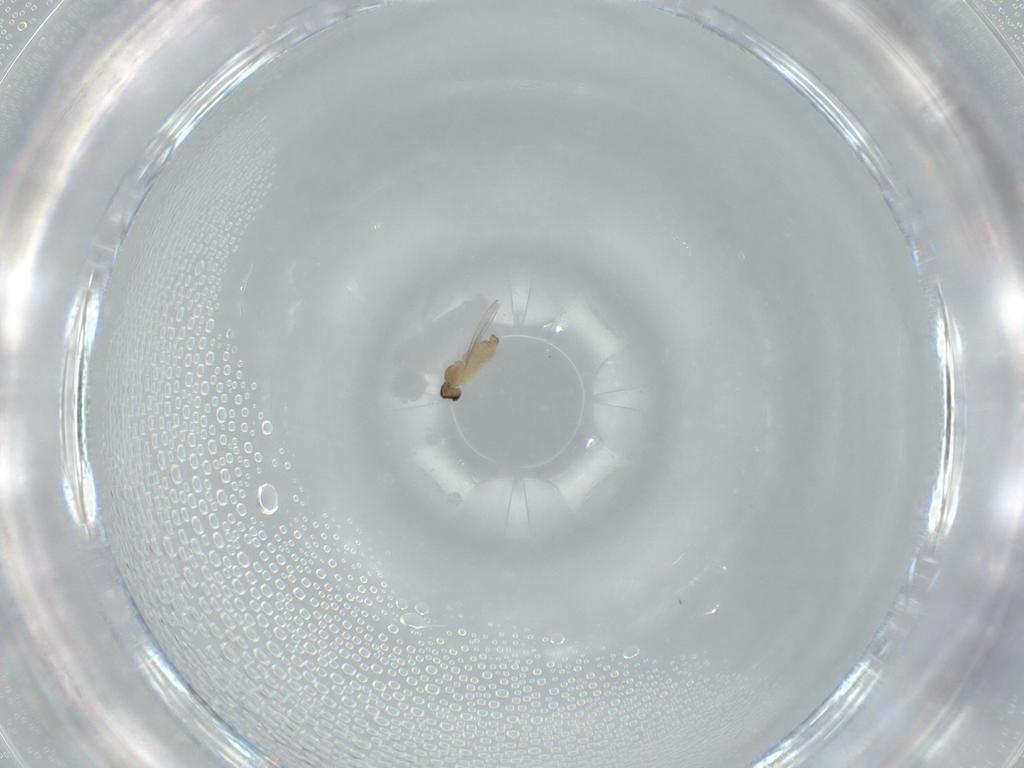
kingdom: Animalia
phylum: Arthropoda
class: Insecta
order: Diptera
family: Cecidomyiidae
